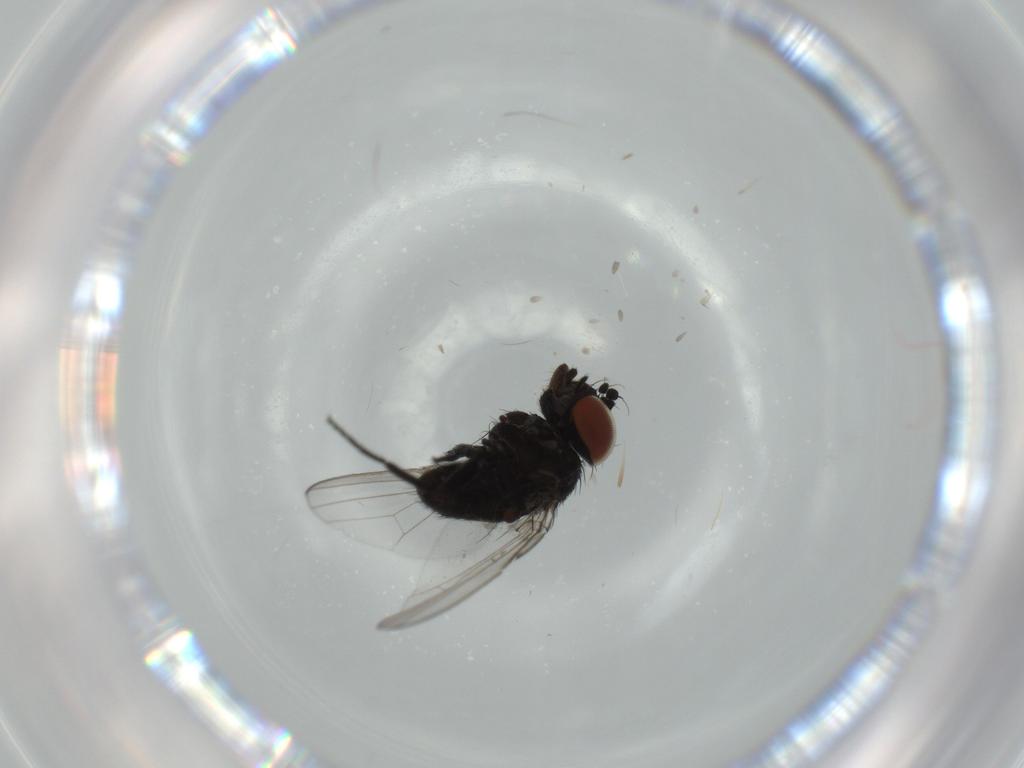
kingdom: Animalia
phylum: Arthropoda
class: Insecta
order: Diptera
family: Milichiidae
